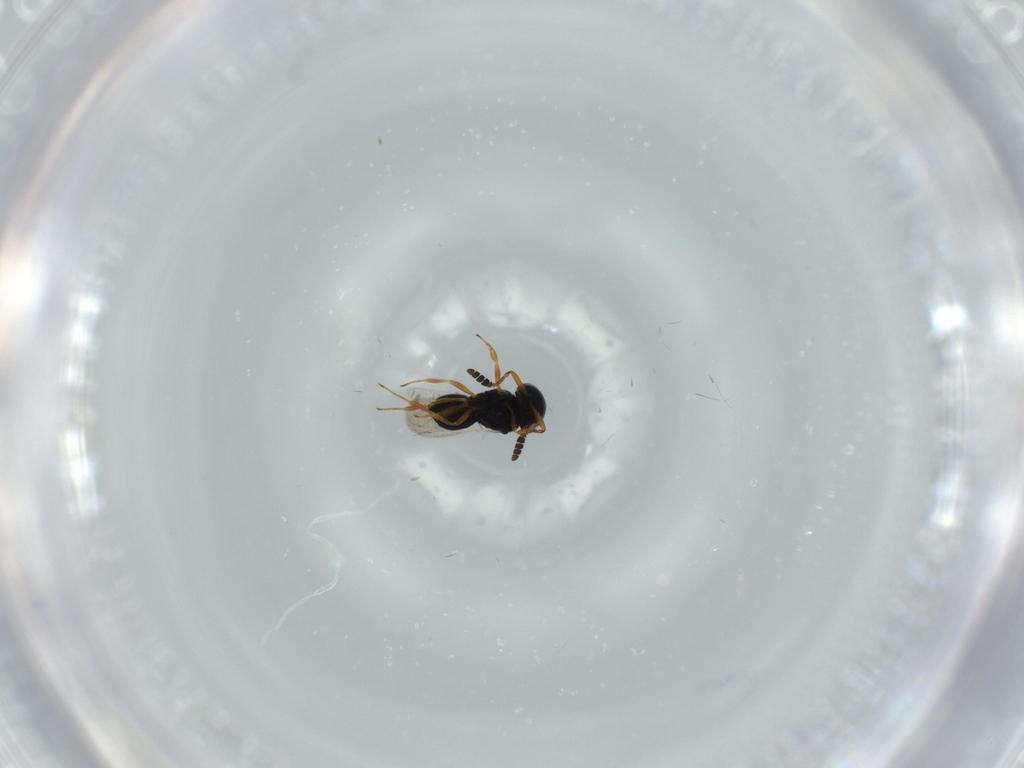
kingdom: Animalia
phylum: Arthropoda
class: Insecta
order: Hymenoptera
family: Scelionidae
